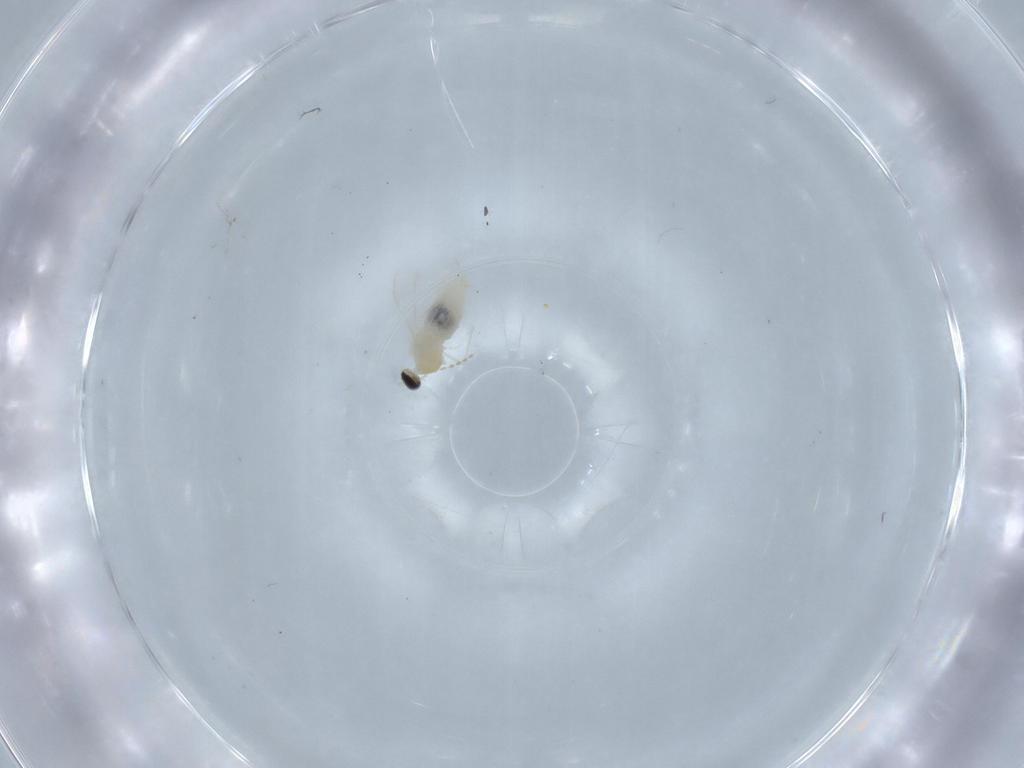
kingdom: Animalia
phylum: Arthropoda
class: Insecta
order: Diptera
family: Cecidomyiidae
